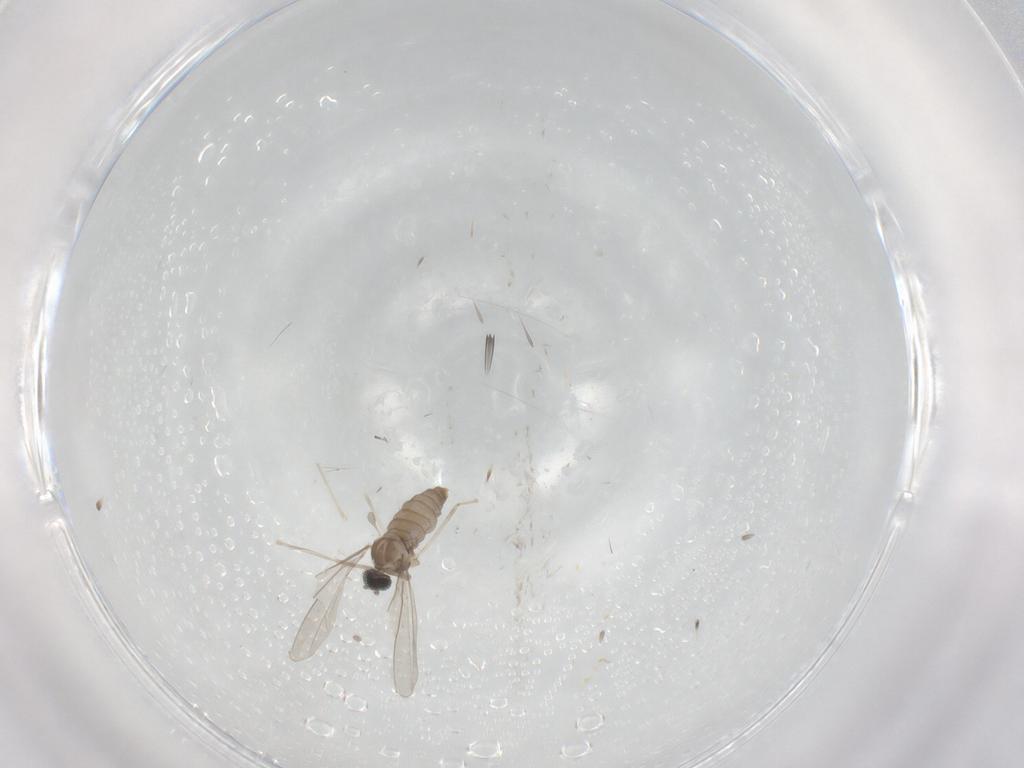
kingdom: Animalia
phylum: Arthropoda
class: Insecta
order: Diptera
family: Cecidomyiidae
